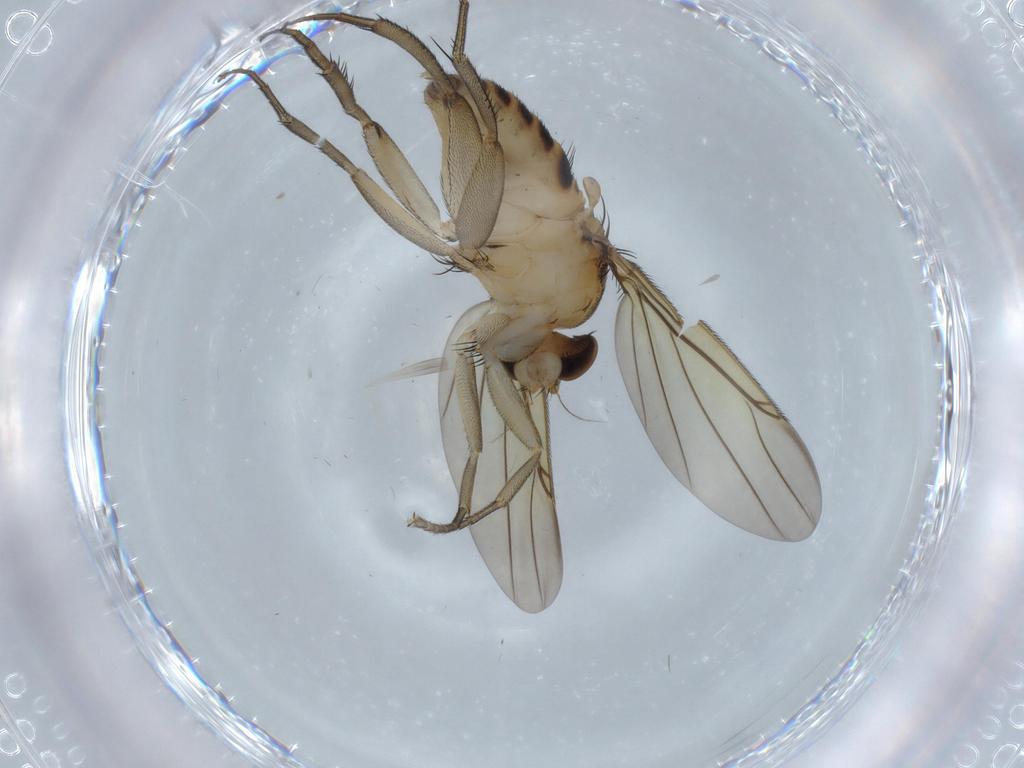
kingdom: Animalia
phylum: Arthropoda
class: Insecta
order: Diptera
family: Phoridae
